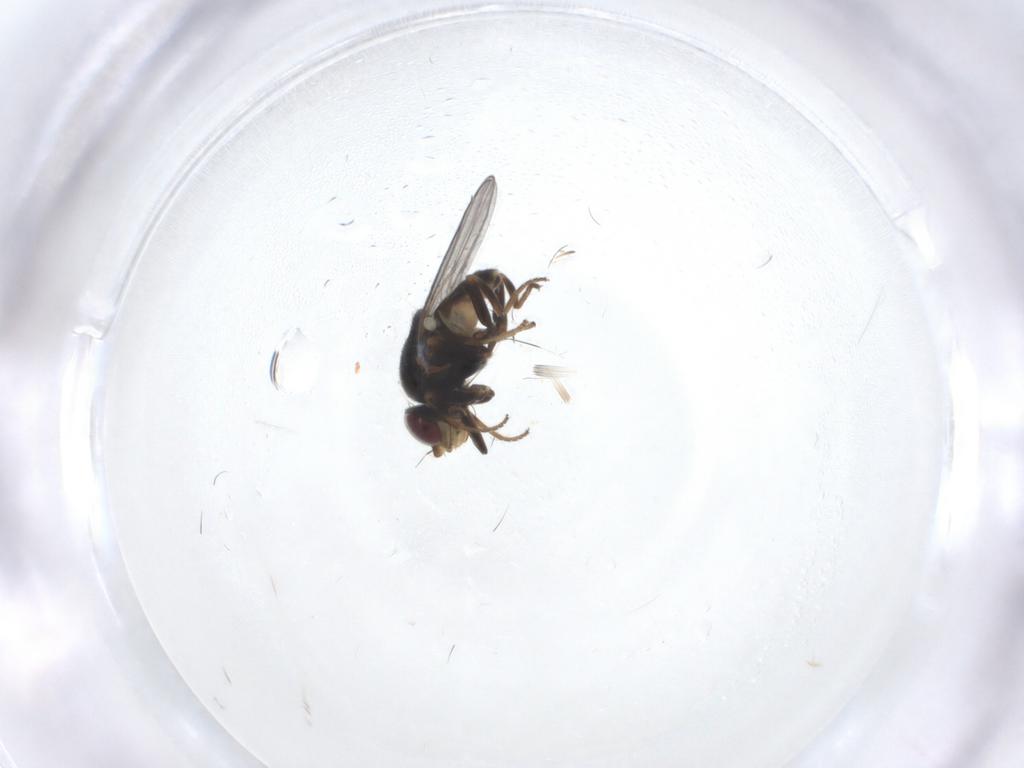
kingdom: Animalia
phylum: Arthropoda
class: Insecta
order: Diptera
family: Chloropidae
